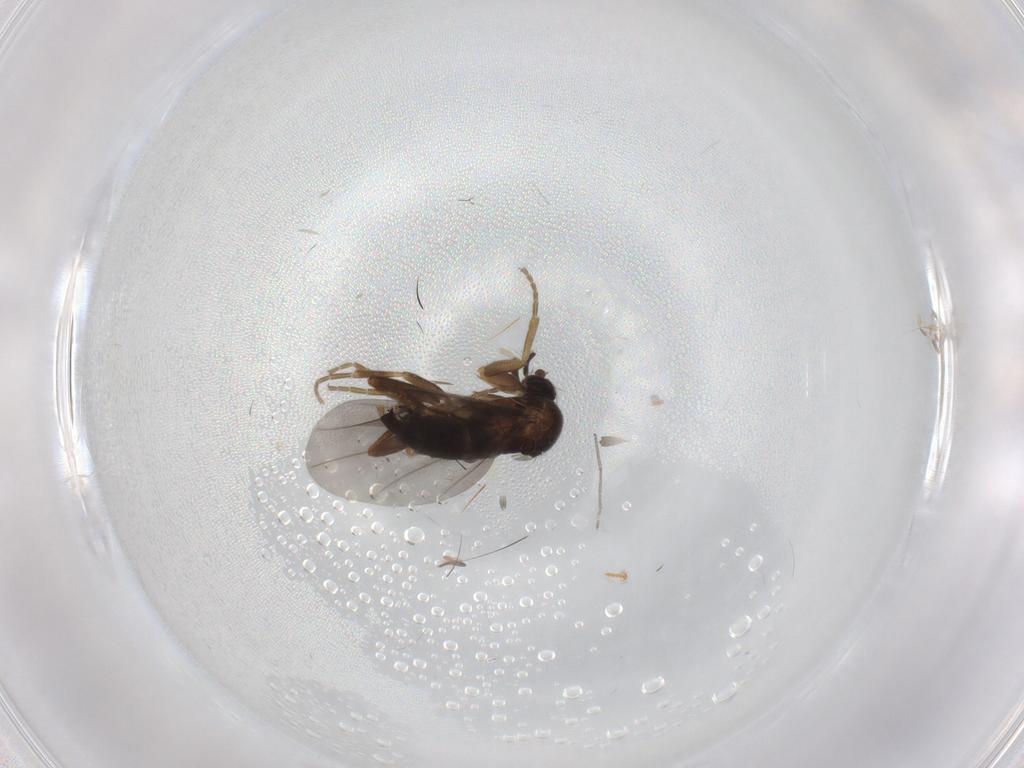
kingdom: Animalia
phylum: Arthropoda
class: Insecta
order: Diptera
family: Chironomidae
